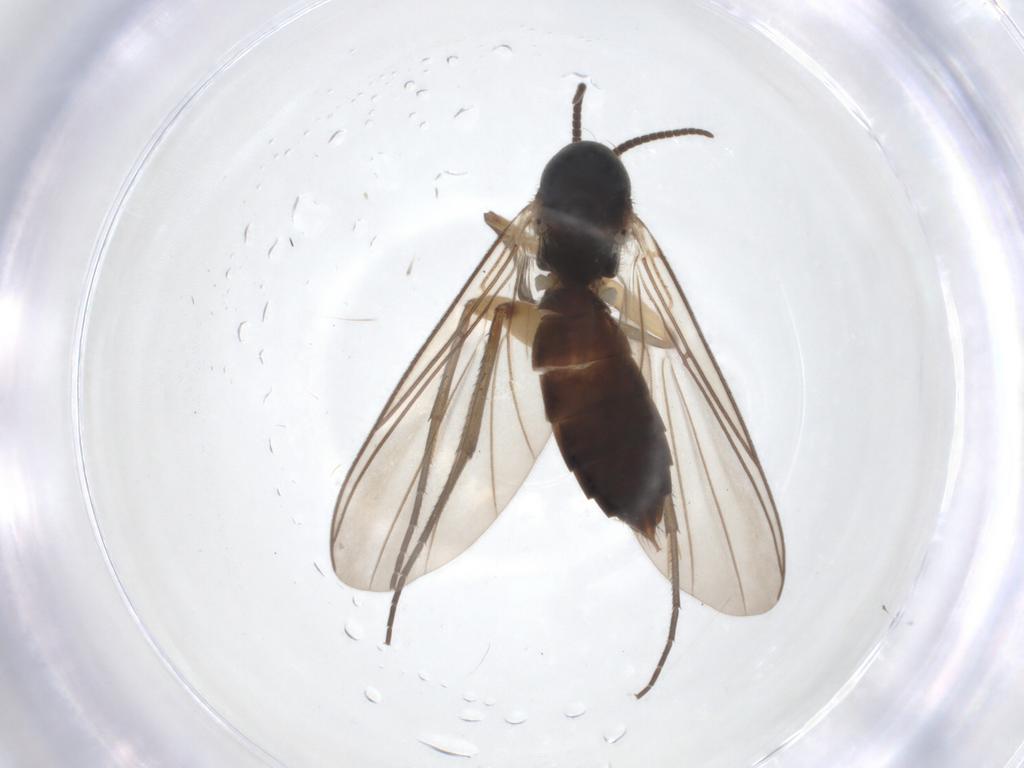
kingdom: Animalia
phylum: Arthropoda
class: Insecta
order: Diptera
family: Mycetophilidae
